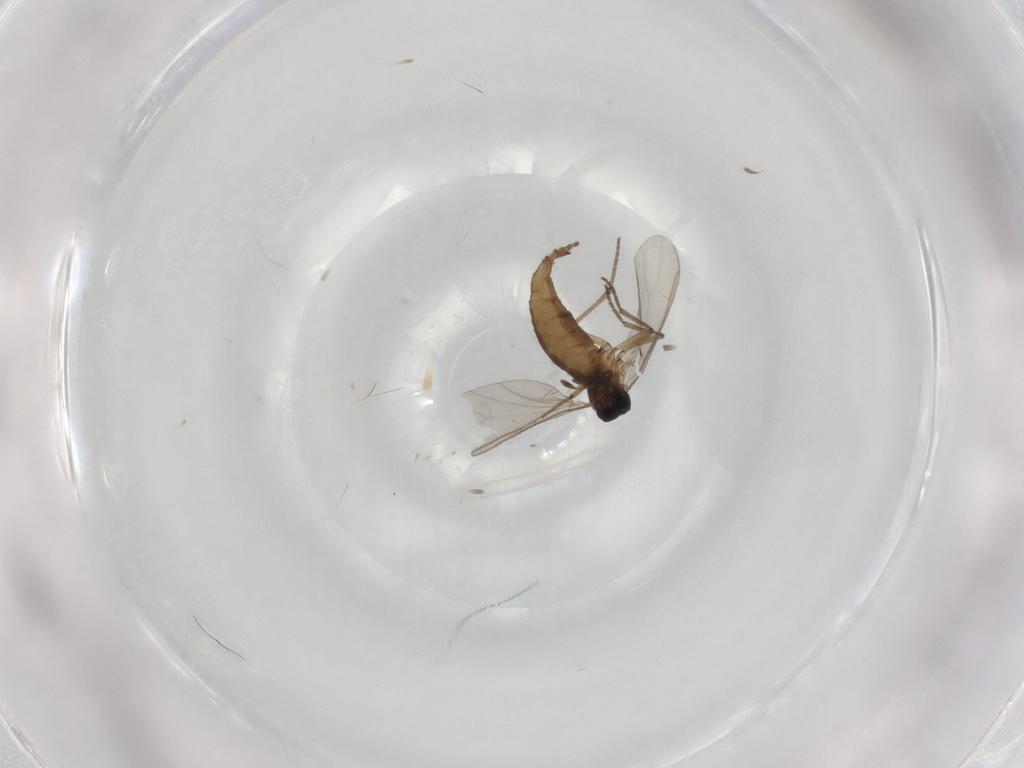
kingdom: Animalia
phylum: Arthropoda
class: Insecta
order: Diptera
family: Sciaridae
